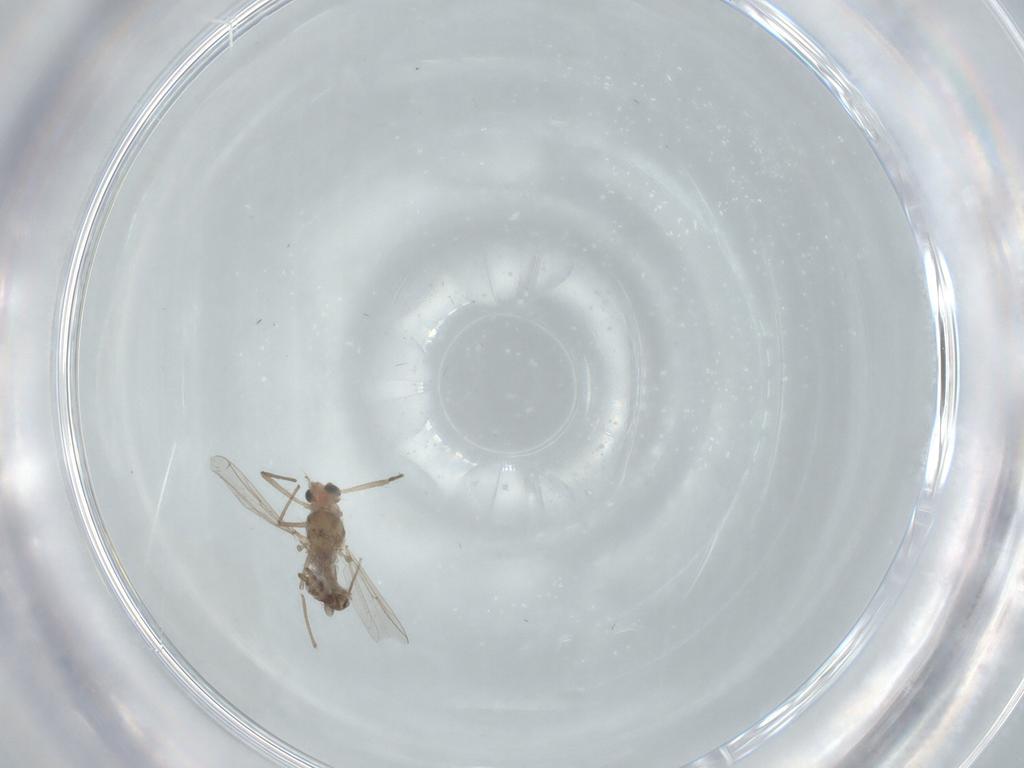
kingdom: Animalia
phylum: Arthropoda
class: Insecta
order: Diptera
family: Chironomidae
